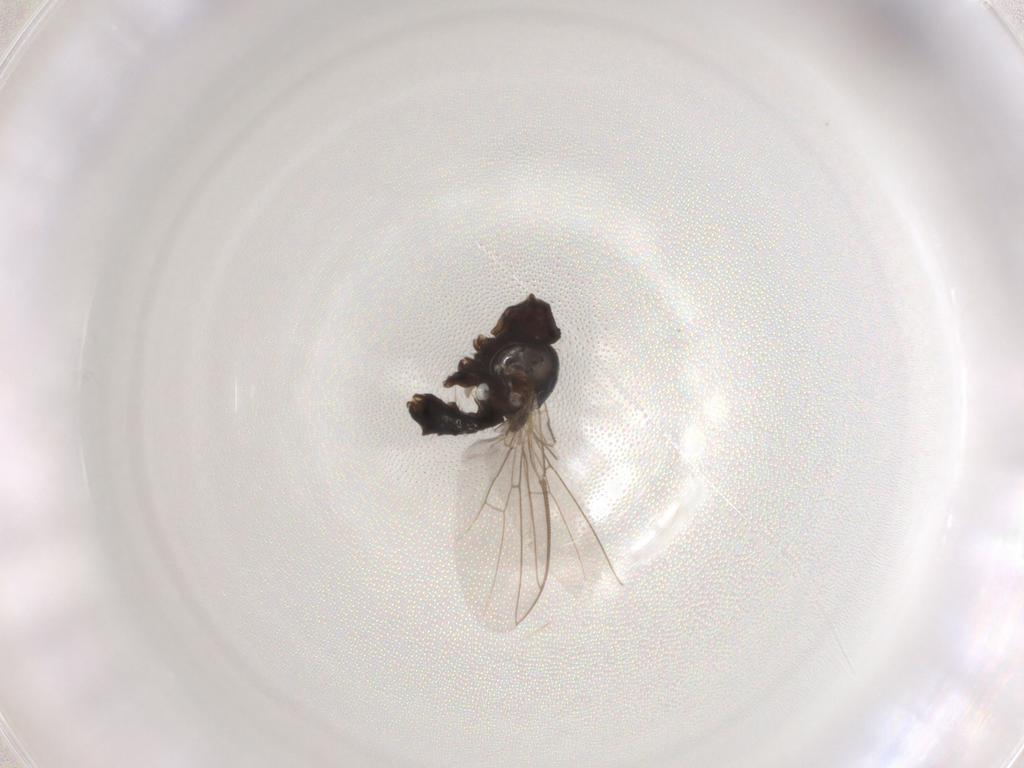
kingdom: Animalia
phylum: Arthropoda
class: Insecta
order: Diptera
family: Agromyzidae
